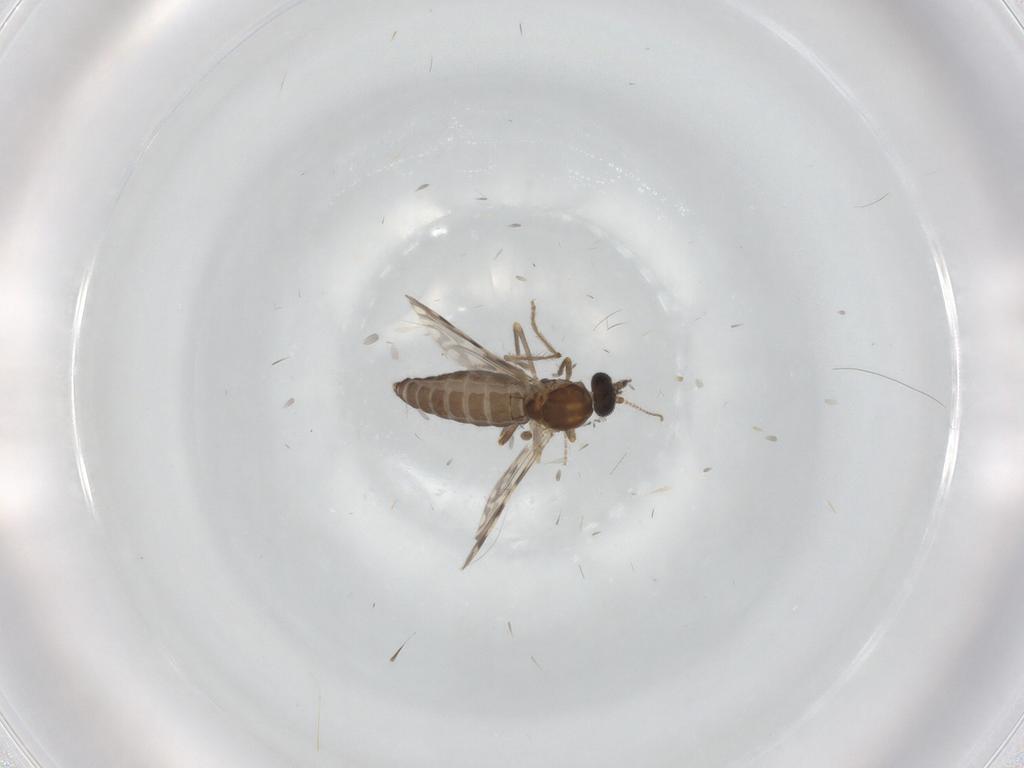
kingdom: Animalia
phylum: Arthropoda
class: Insecta
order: Diptera
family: Ceratopogonidae
